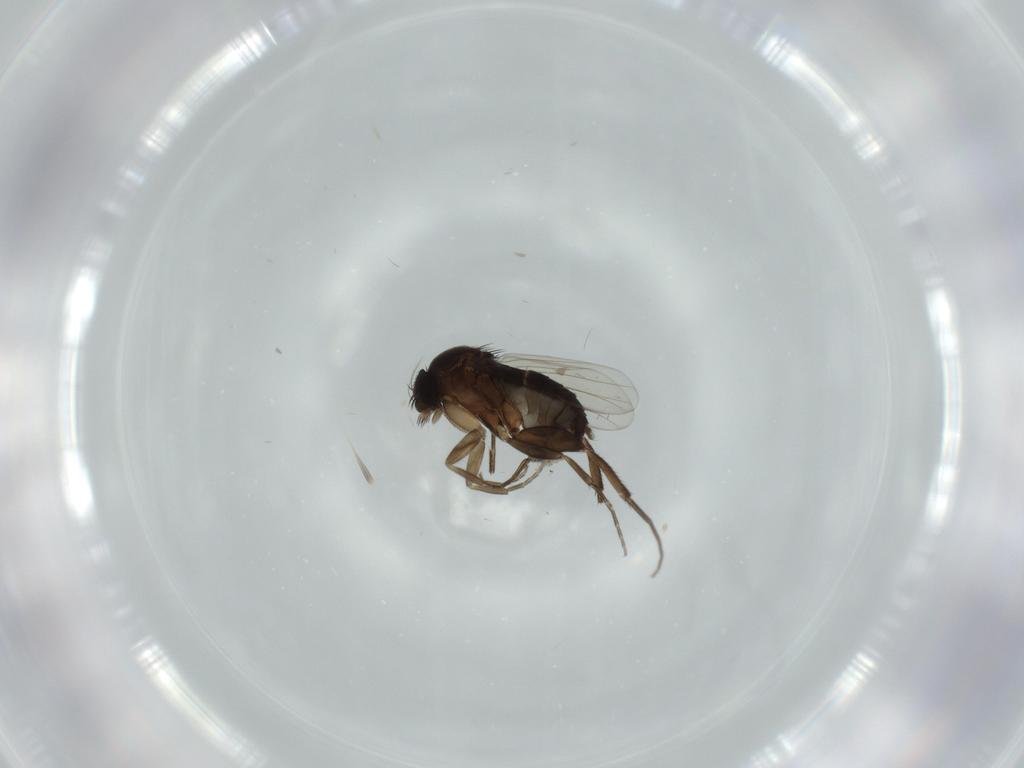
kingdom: Animalia
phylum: Arthropoda
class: Insecta
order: Diptera
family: Phoridae
